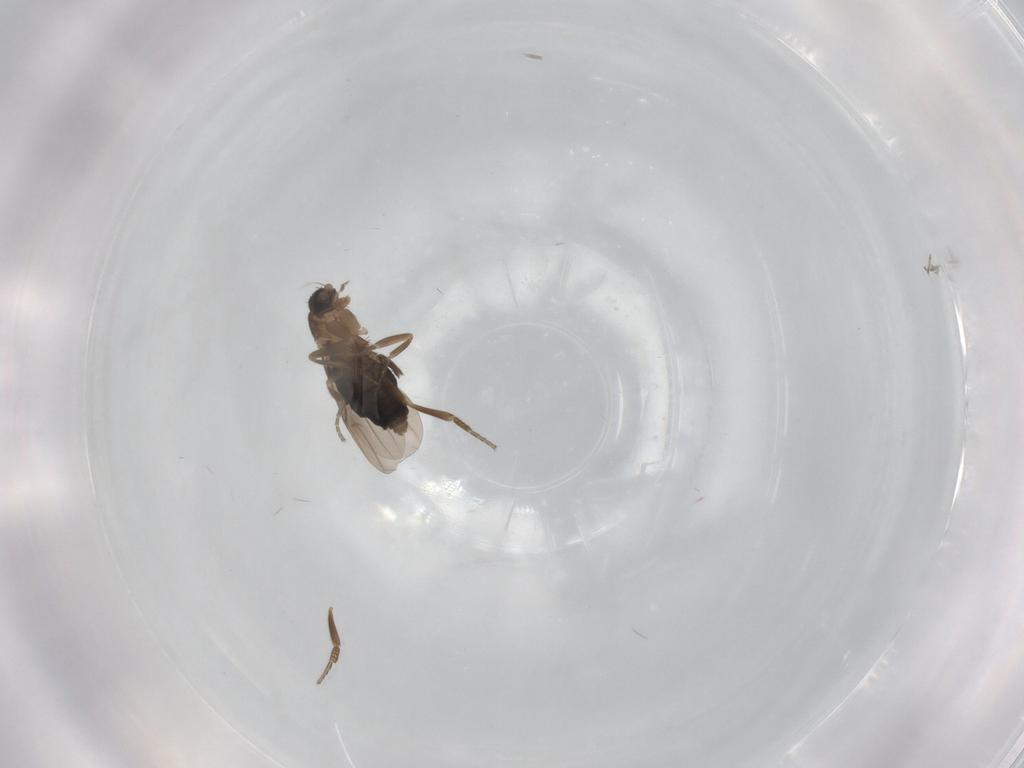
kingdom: Animalia
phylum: Arthropoda
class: Insecta
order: Diptera
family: Phoridae
